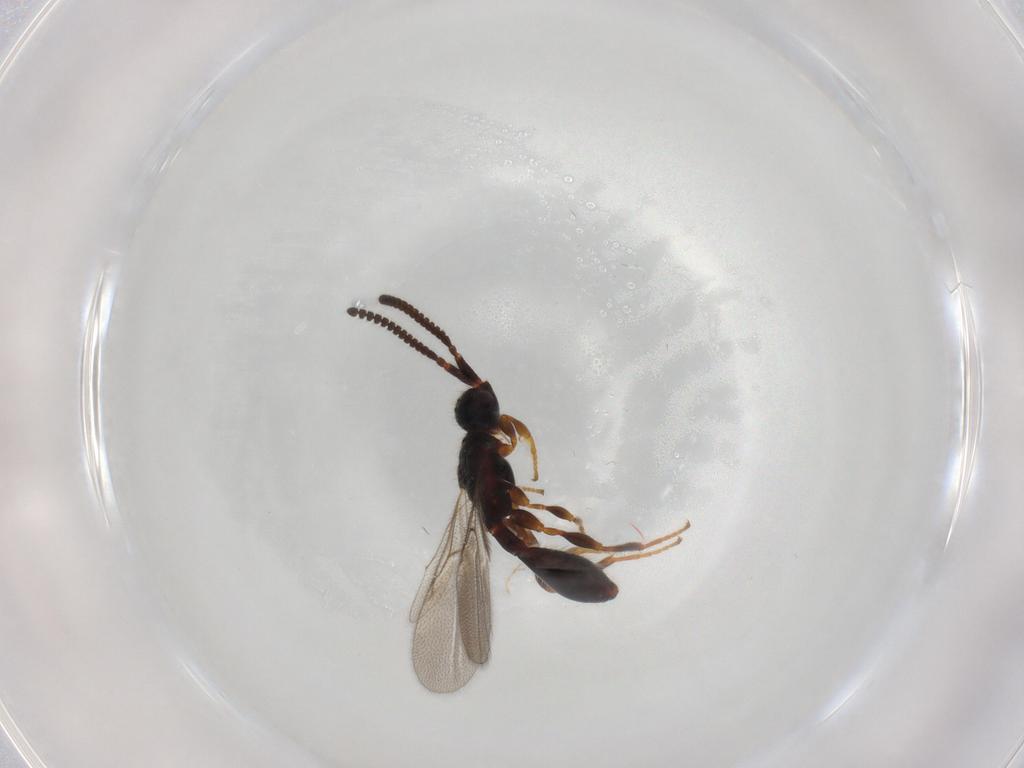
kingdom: Animalia
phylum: Arthropoda
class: Insecta
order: Hymenoptera
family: Diapriidae
